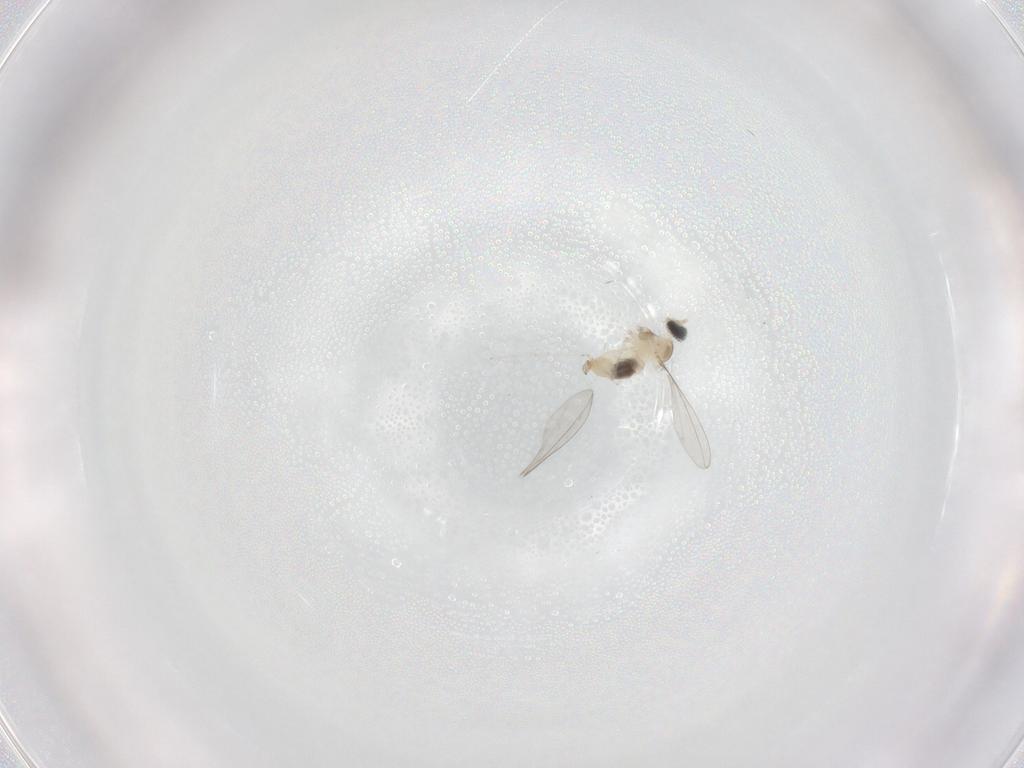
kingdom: Animalia
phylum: Arthropoda
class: Insecta
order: Diptera
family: Cecidomyiidae
